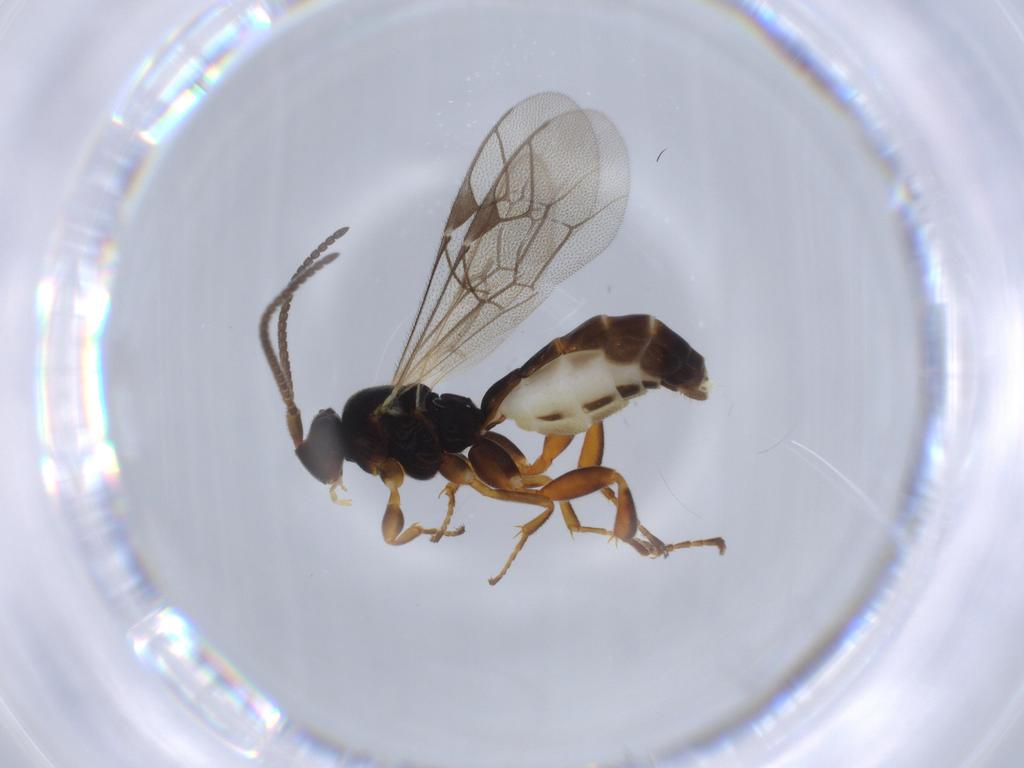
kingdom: Animalia
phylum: Arthropoda
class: Insecta
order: Hymenoptera
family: Ichneumonidae
